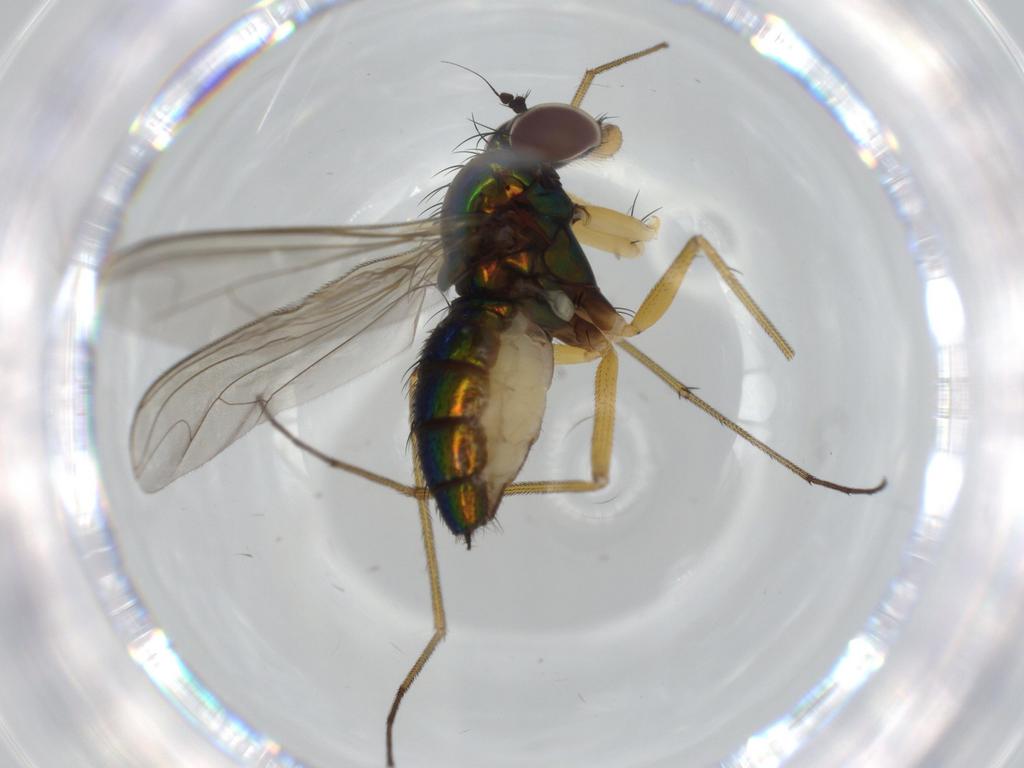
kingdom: Animalia
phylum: Arthropoda
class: Insecta
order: Diptera
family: Dolichopodidae
